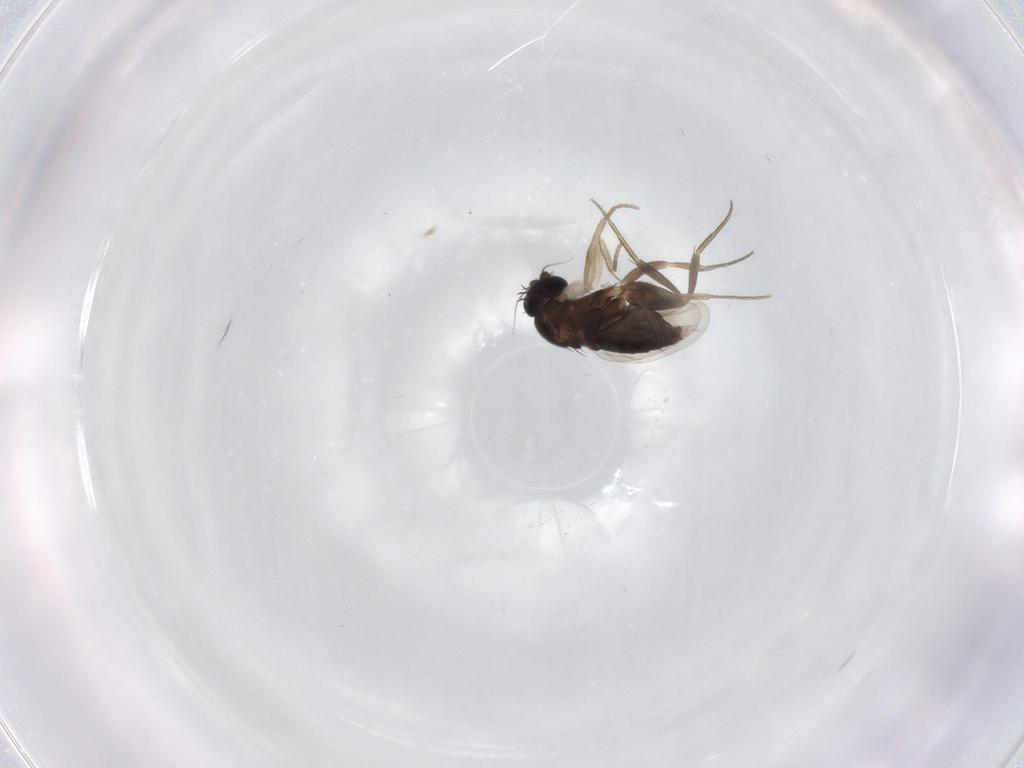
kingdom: Animalia
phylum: Arthropoda
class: Insecta
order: Diptera
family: Phoridae
